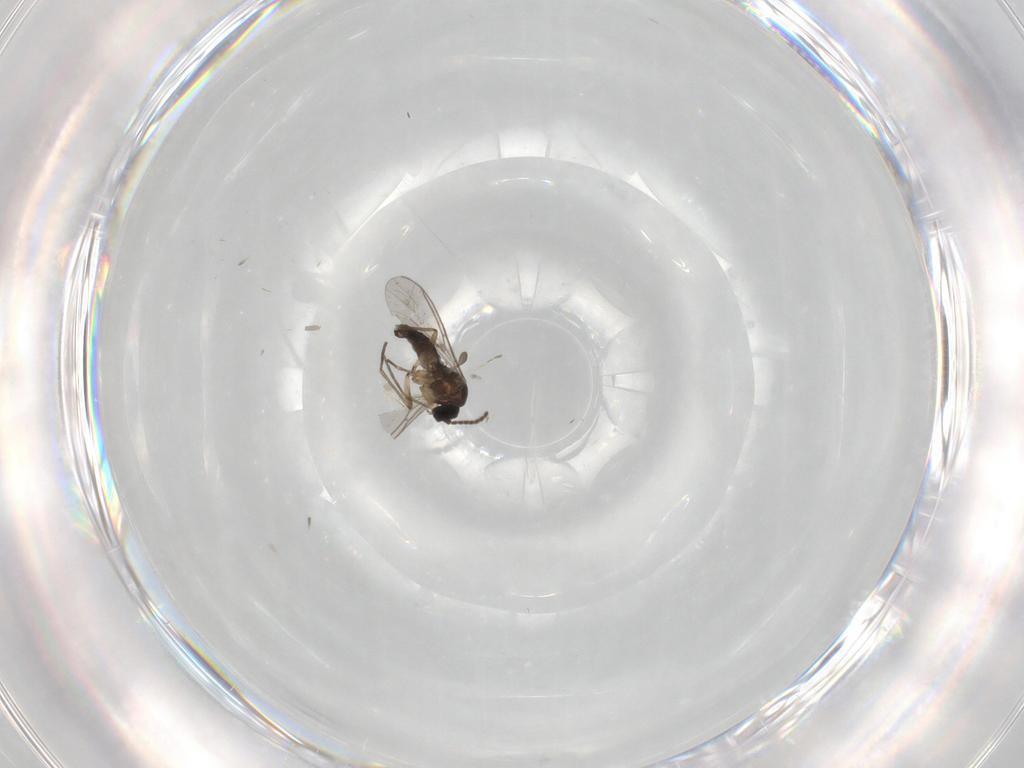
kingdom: Animalia
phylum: Arthropoda
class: Insecta
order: Diptera
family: Sciaridae
